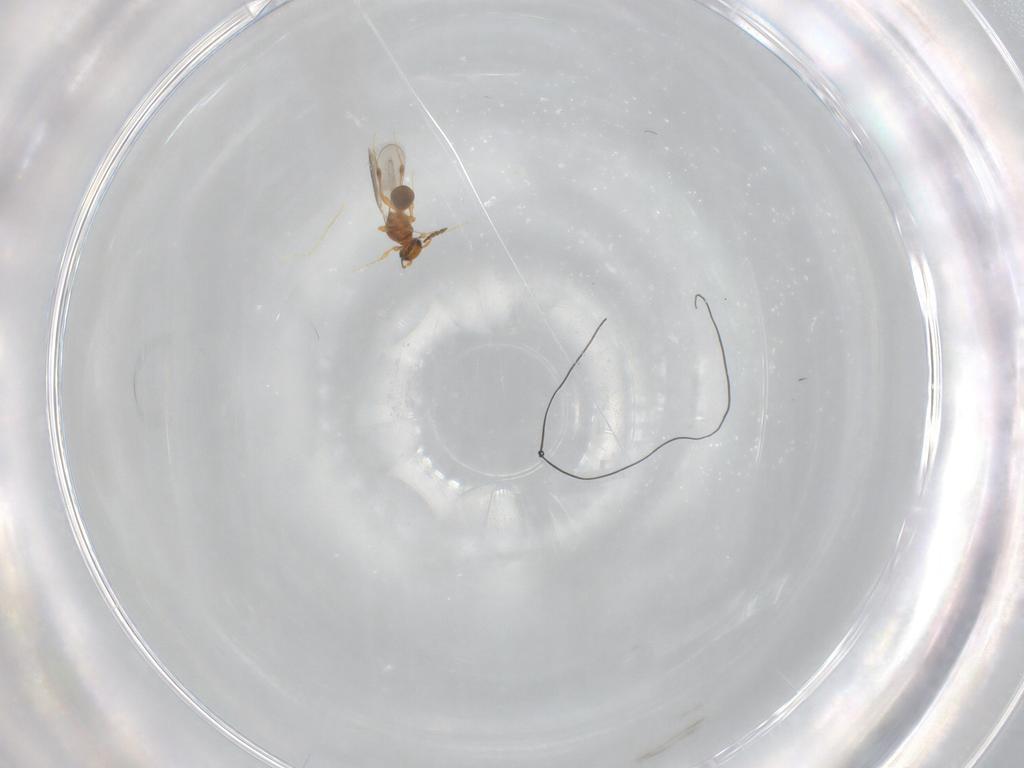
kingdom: Animalia
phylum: Arthropoda
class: Insecta
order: Hymenoptera
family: Platygastridae
